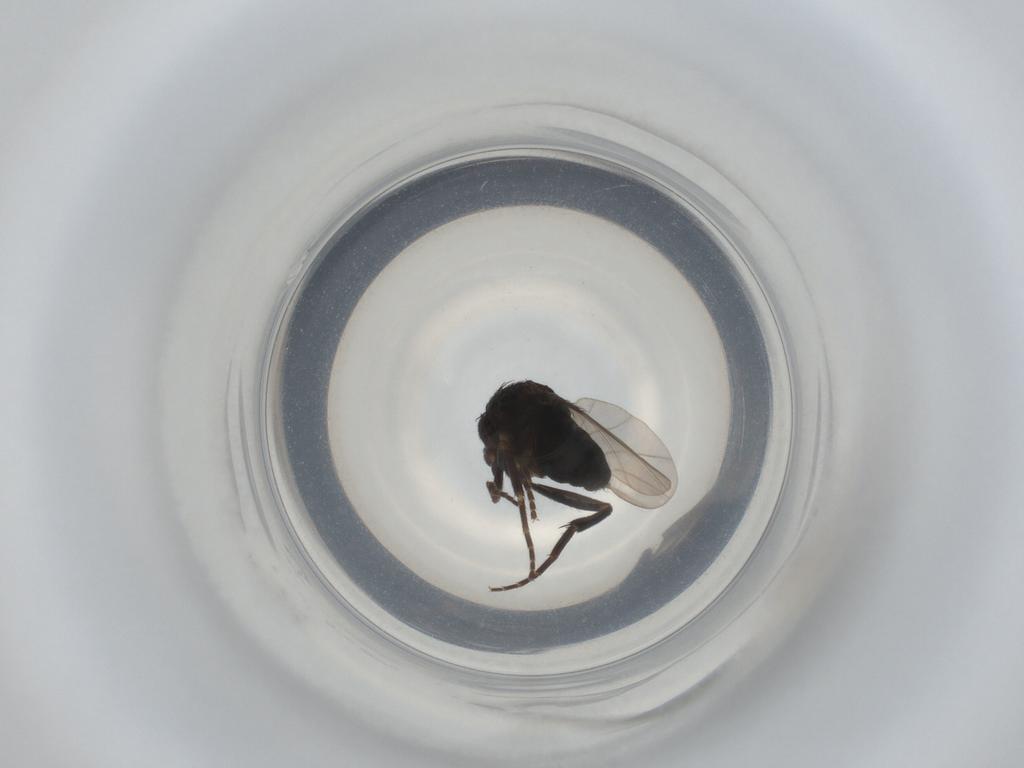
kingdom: Animalia
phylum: Arthropoda
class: Insecta
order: Diptera
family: Phoridae
